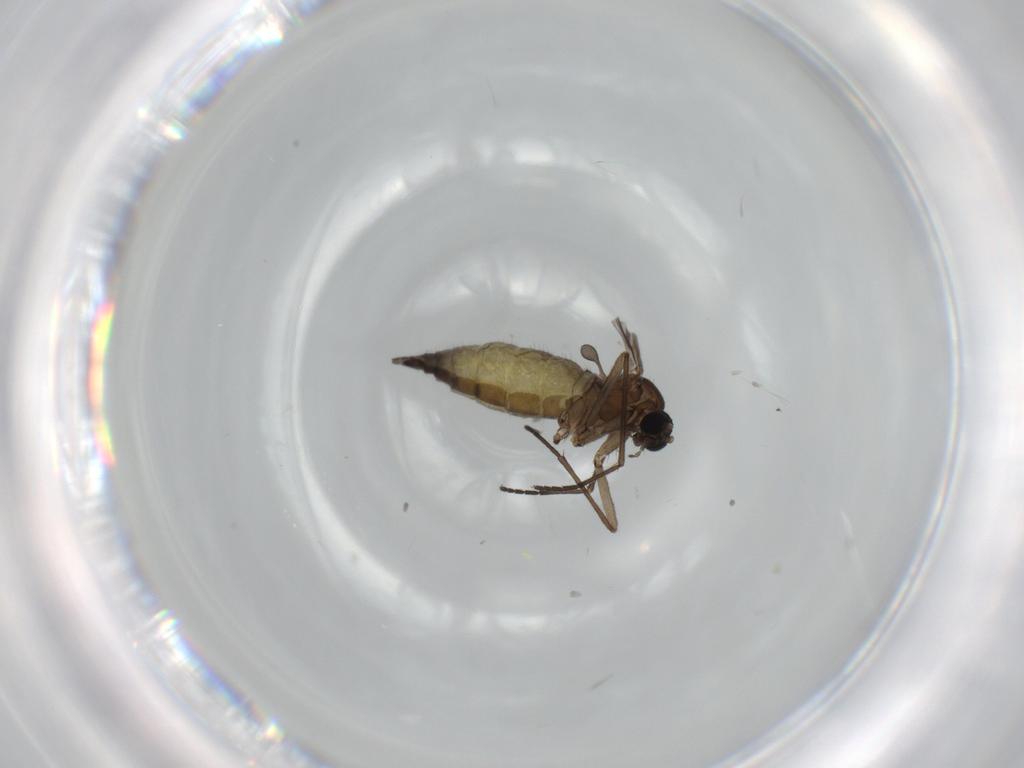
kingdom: Animalia
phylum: Arthropoda
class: Insecta
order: Diptera
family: Sciaridae
